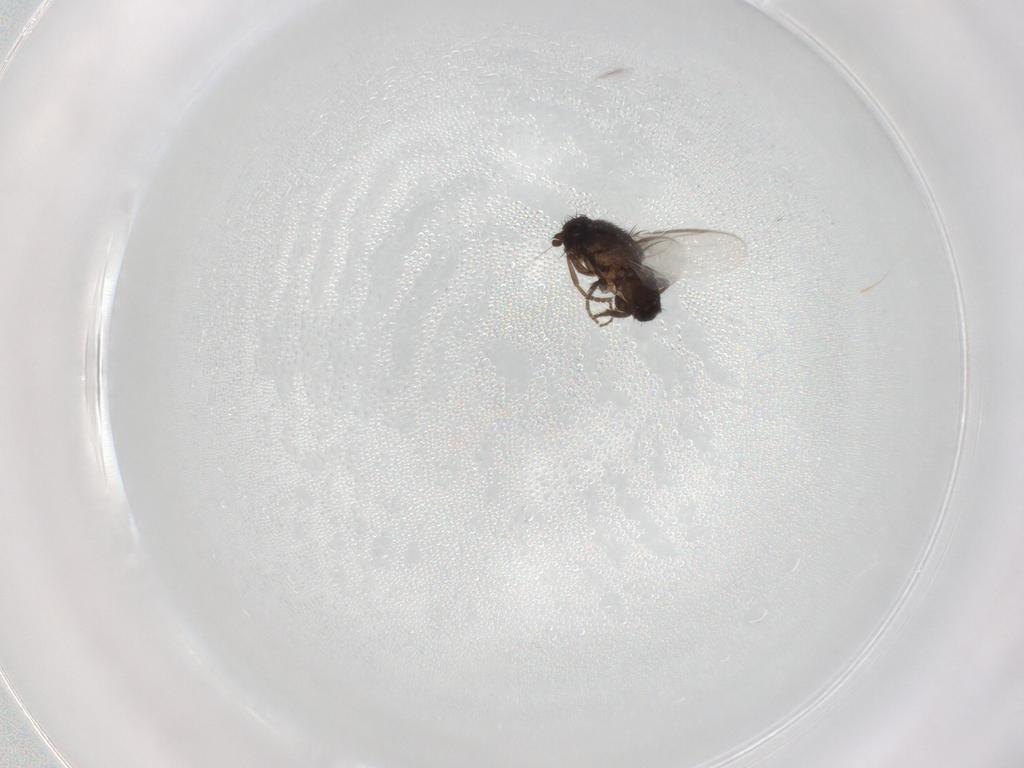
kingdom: Animalia
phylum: Arthropoda
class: Insecta
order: Diptera
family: Sphaeroceridae
